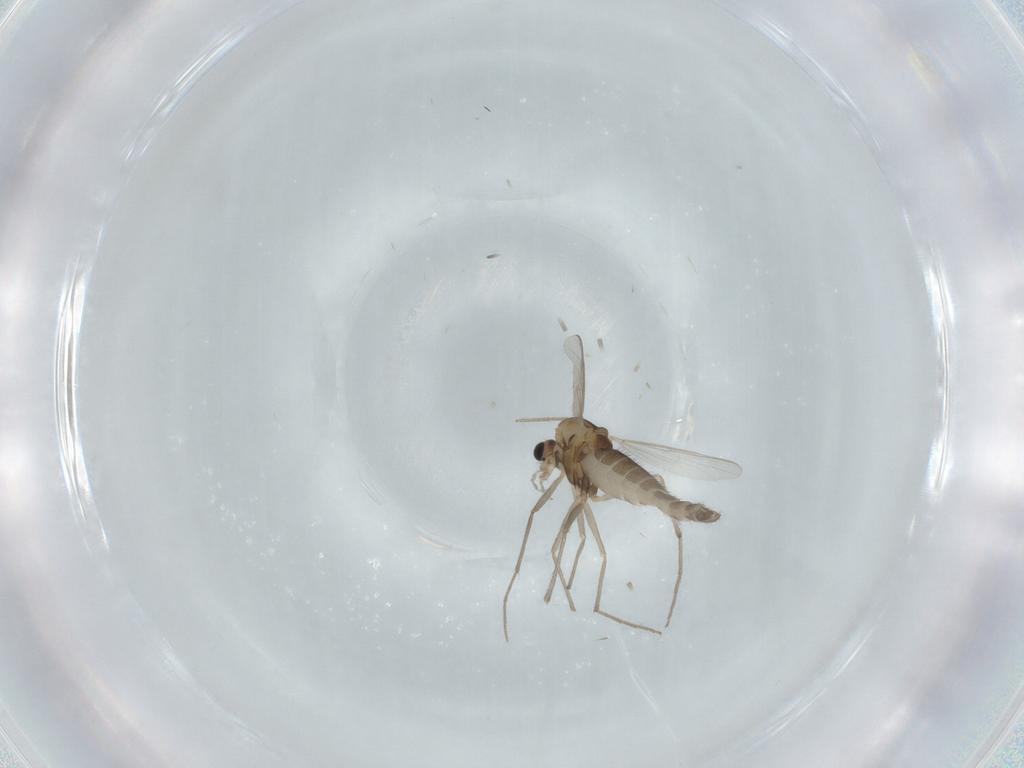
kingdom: Animalia
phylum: Arthropoda
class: Insecta
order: Diptera
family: Chironomidae
